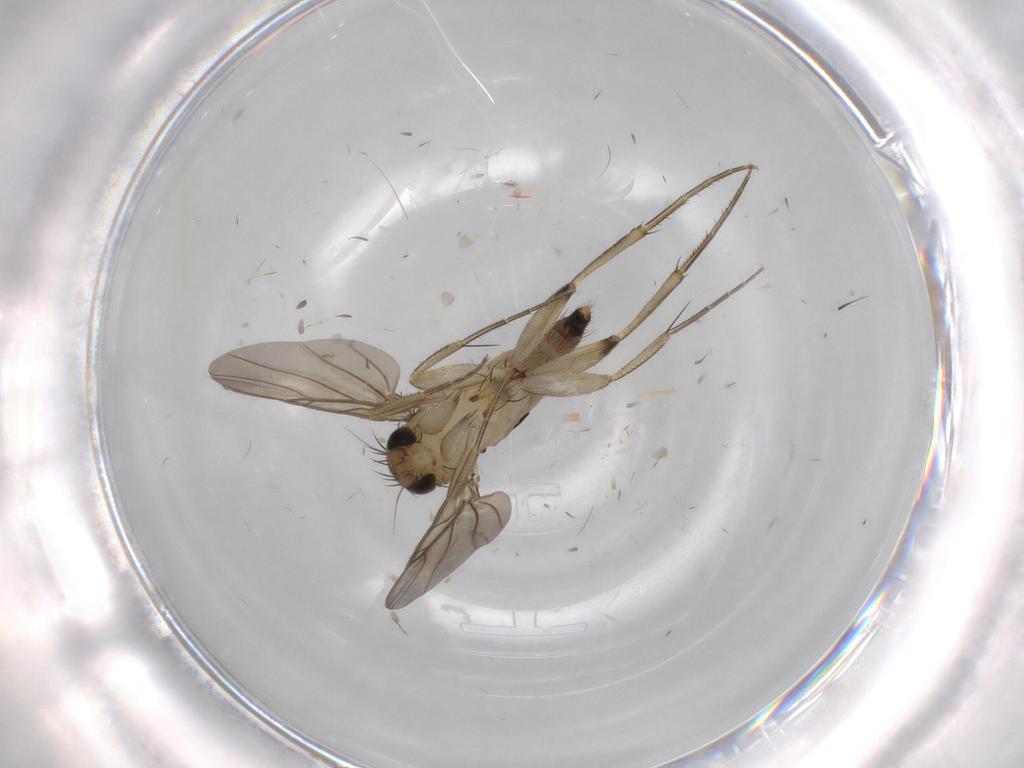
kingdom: Animalia
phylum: Arthropoda
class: Insecta
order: Diptera
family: Phoridae
